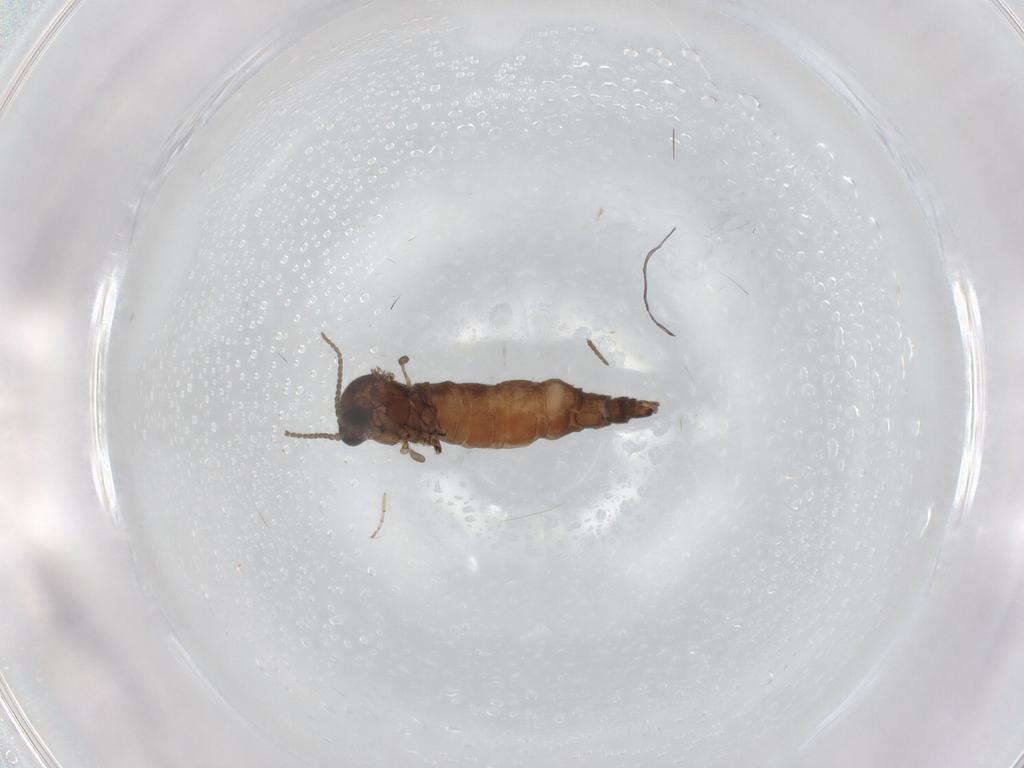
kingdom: Animalia
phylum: Arthropoda
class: Insecta
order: Diptera
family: Sciaridae
